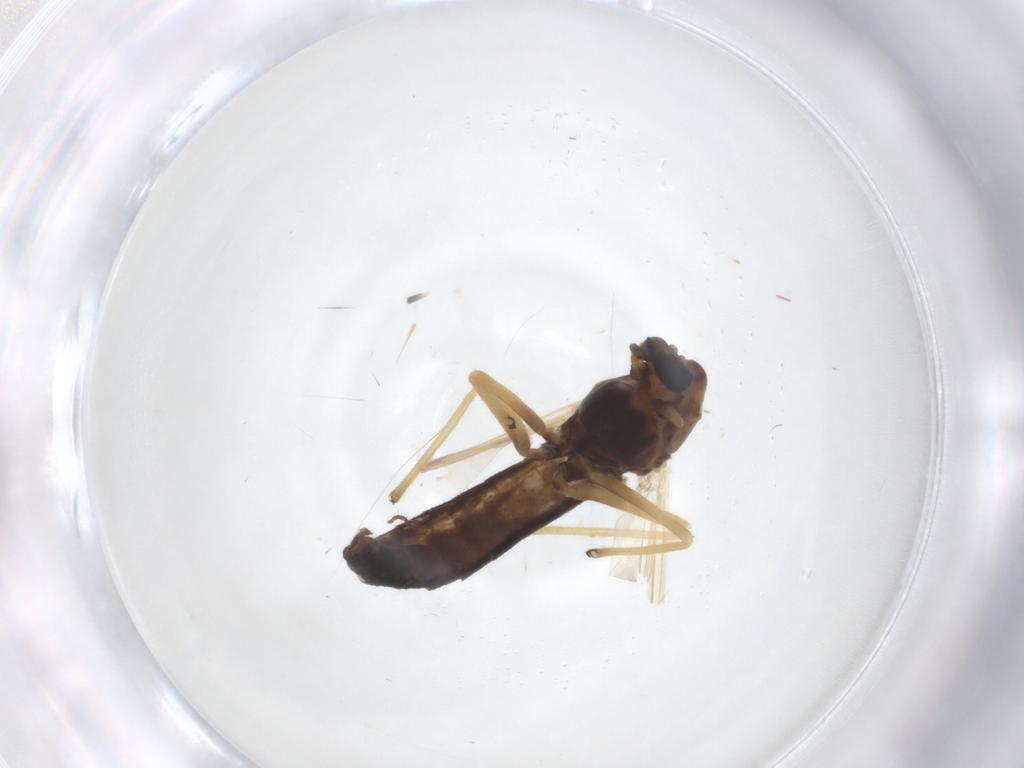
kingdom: Animalia
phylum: Arthropoda
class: Insecta
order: Diptera
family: Chironomidae
